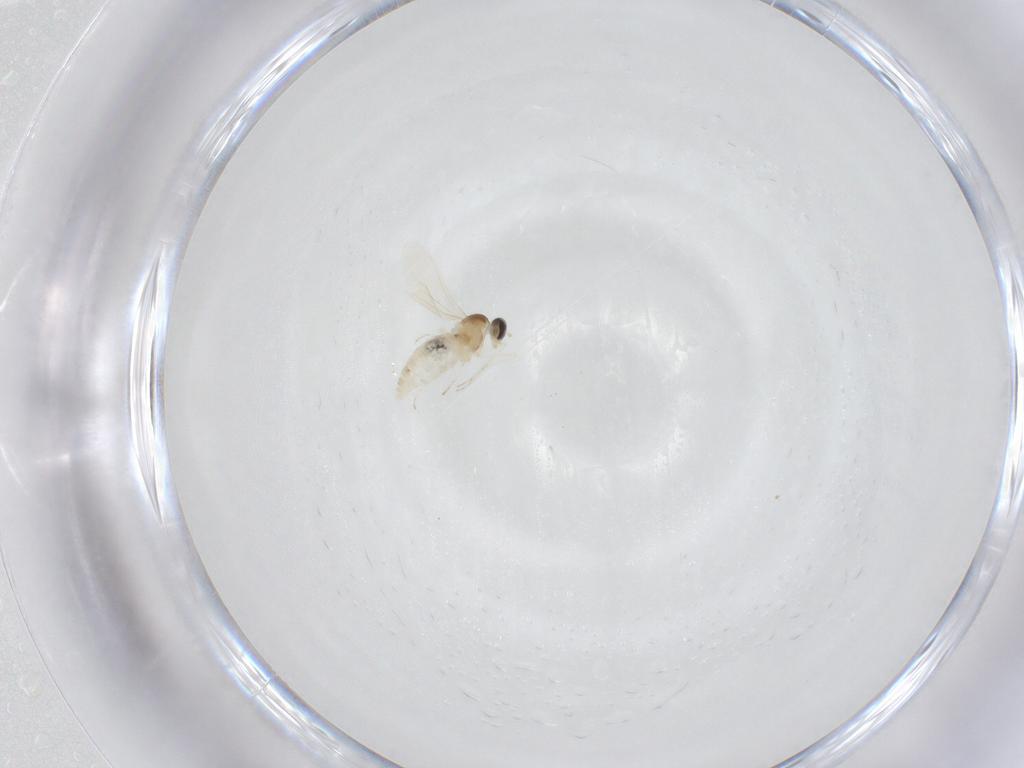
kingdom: Animalia
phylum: Arthropoda
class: Insecta
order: Diptera
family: Cecidomyiidae
